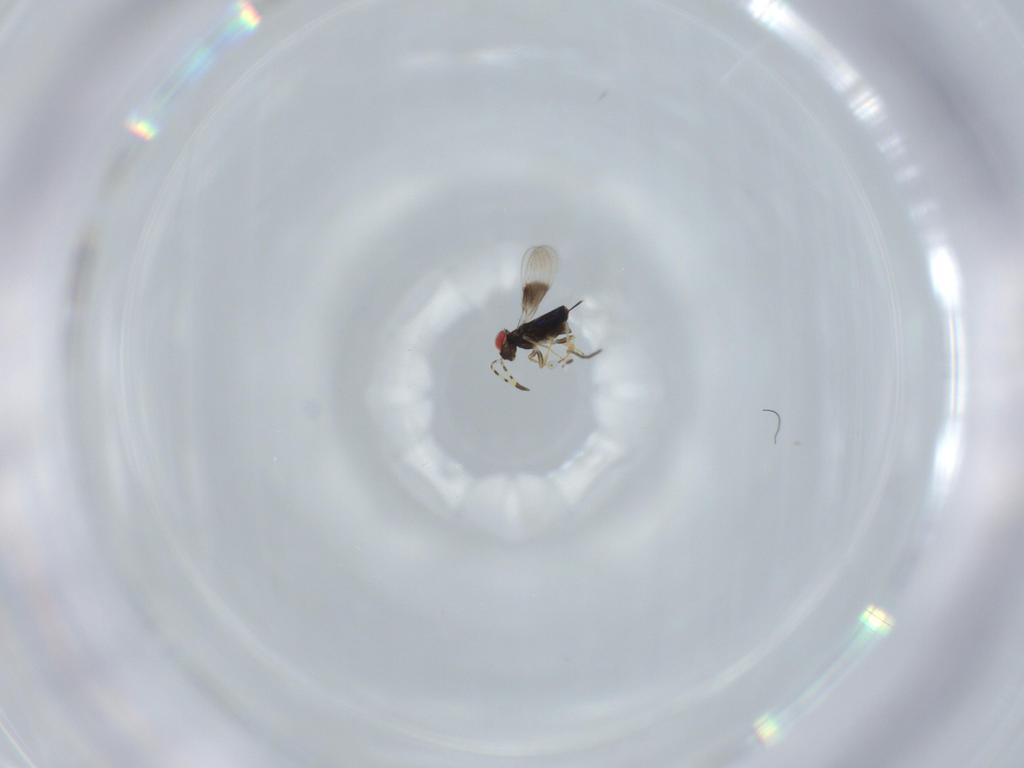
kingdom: Animalia
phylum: Arthropoda
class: Insecta
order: Hymenoptera
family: Azotidae
